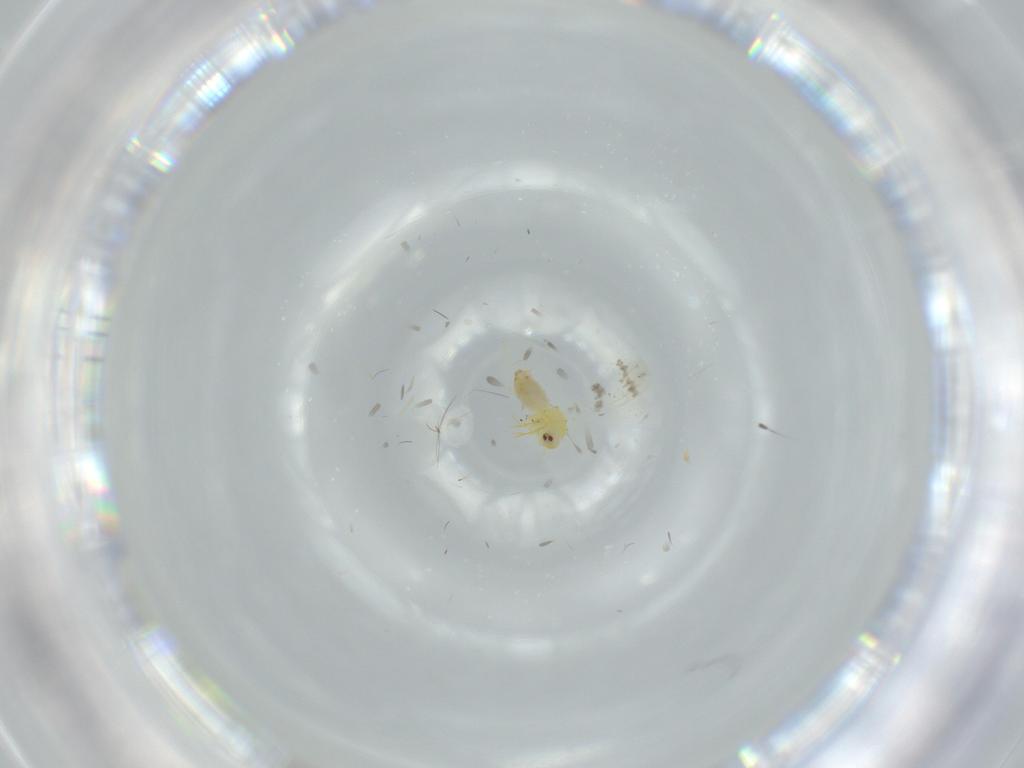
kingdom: Animalia
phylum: Arthropoda
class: Insecta
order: Hemiptera
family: Aleyrodidae
